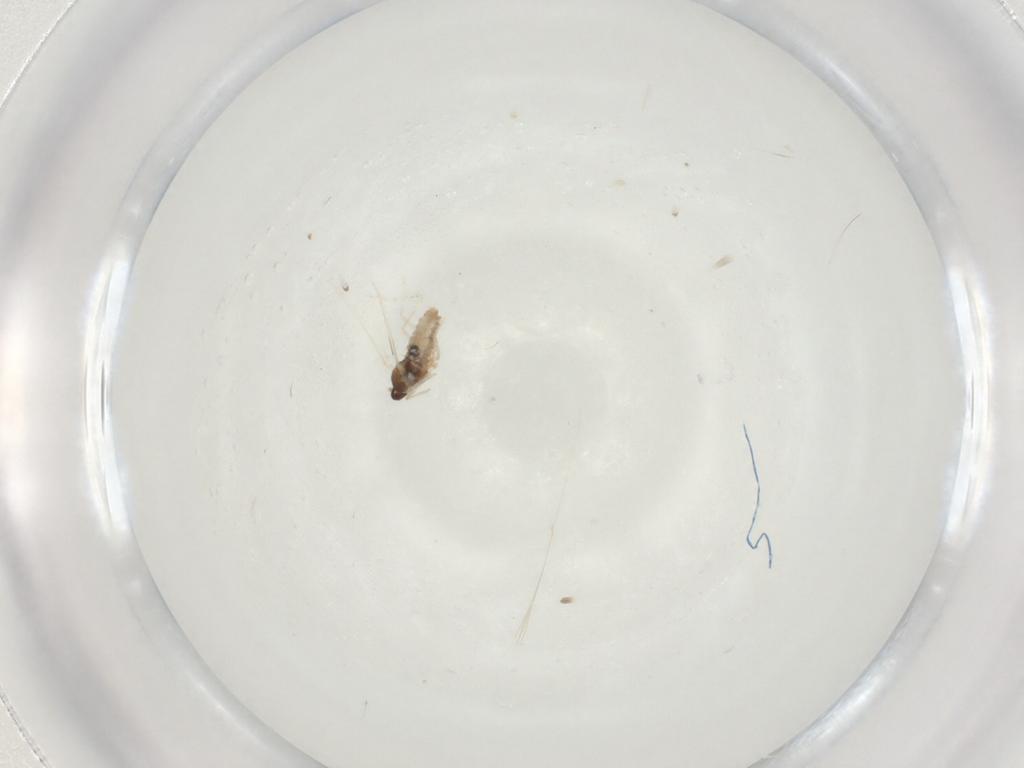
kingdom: Animalia
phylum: Arthropoda
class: Insecta
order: Diptera
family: Cecidomyiidae
